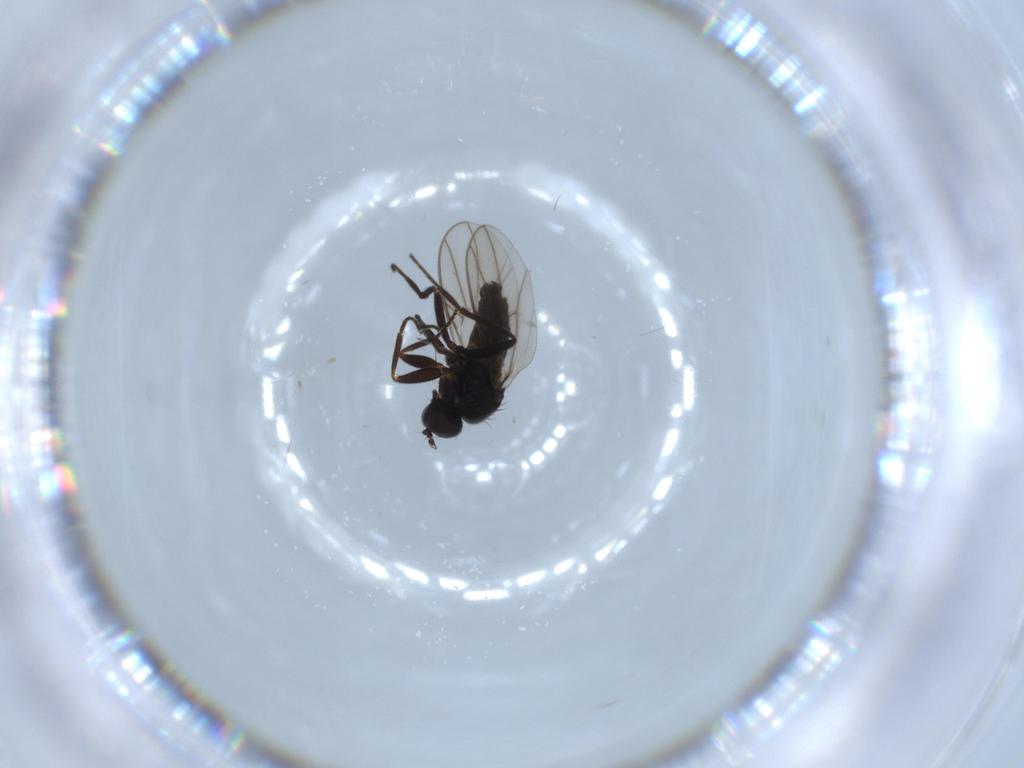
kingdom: Animalia
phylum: Arthropoda
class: Insecta
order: Diptera
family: Hybotidae
